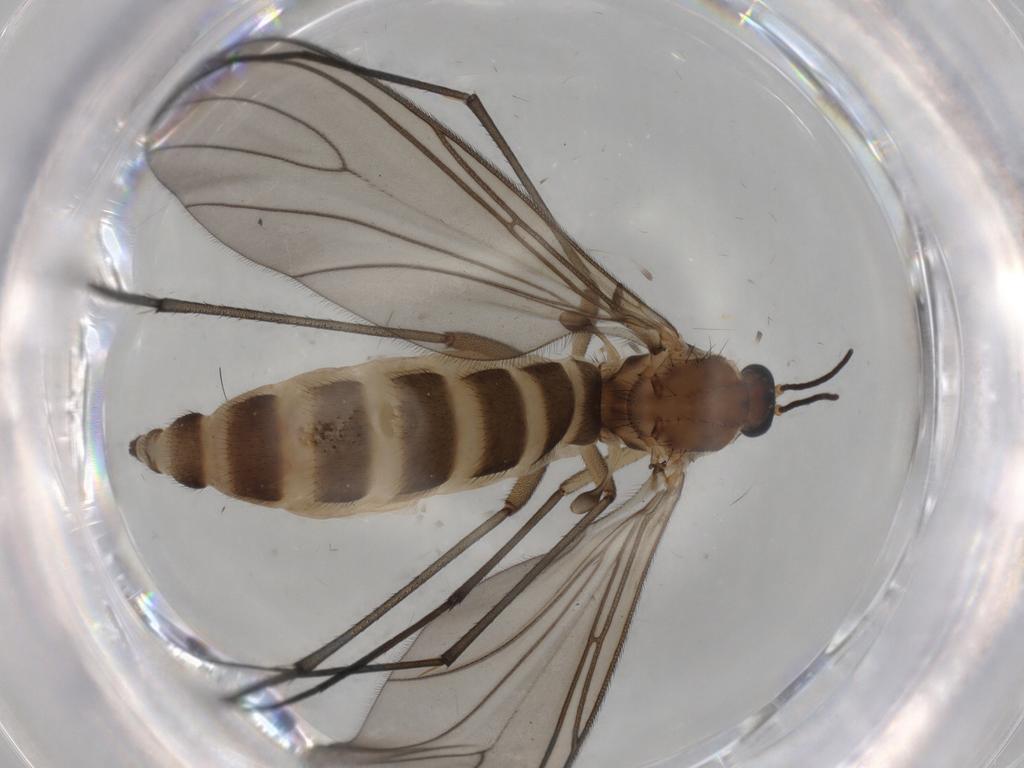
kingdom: Animalia
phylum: Arthropoda
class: Insecta
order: Diptera
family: Sciaridae
